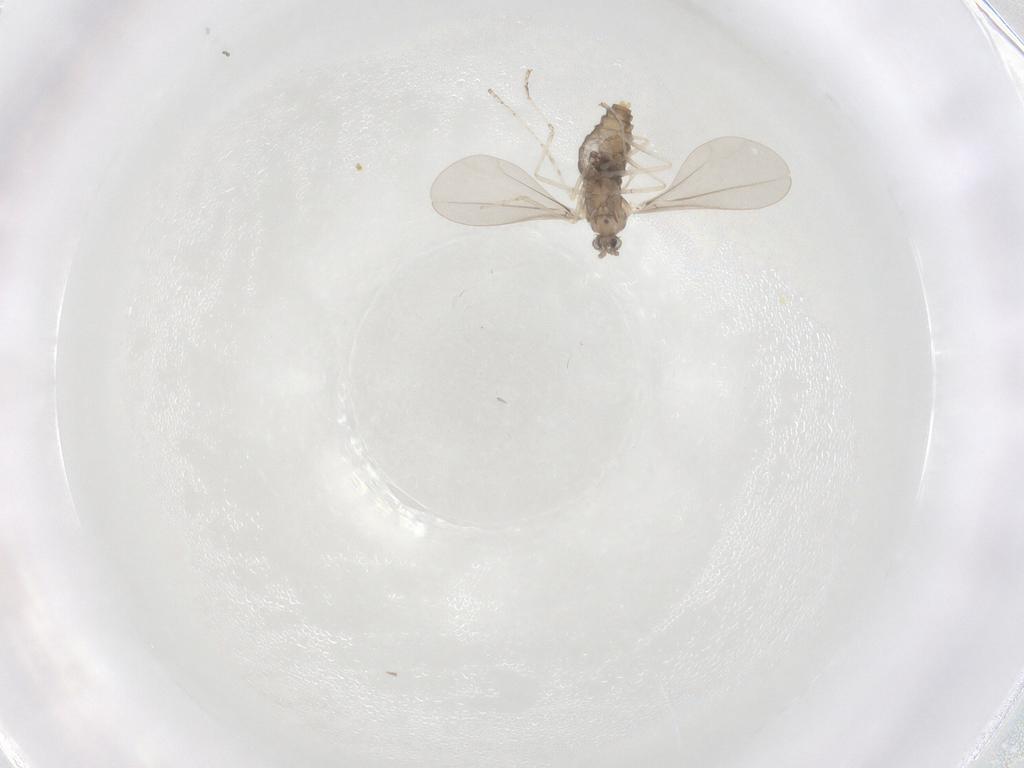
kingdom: Animalia
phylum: Arthropoda
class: Insecta
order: Diptera
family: Cecidomyiidae
